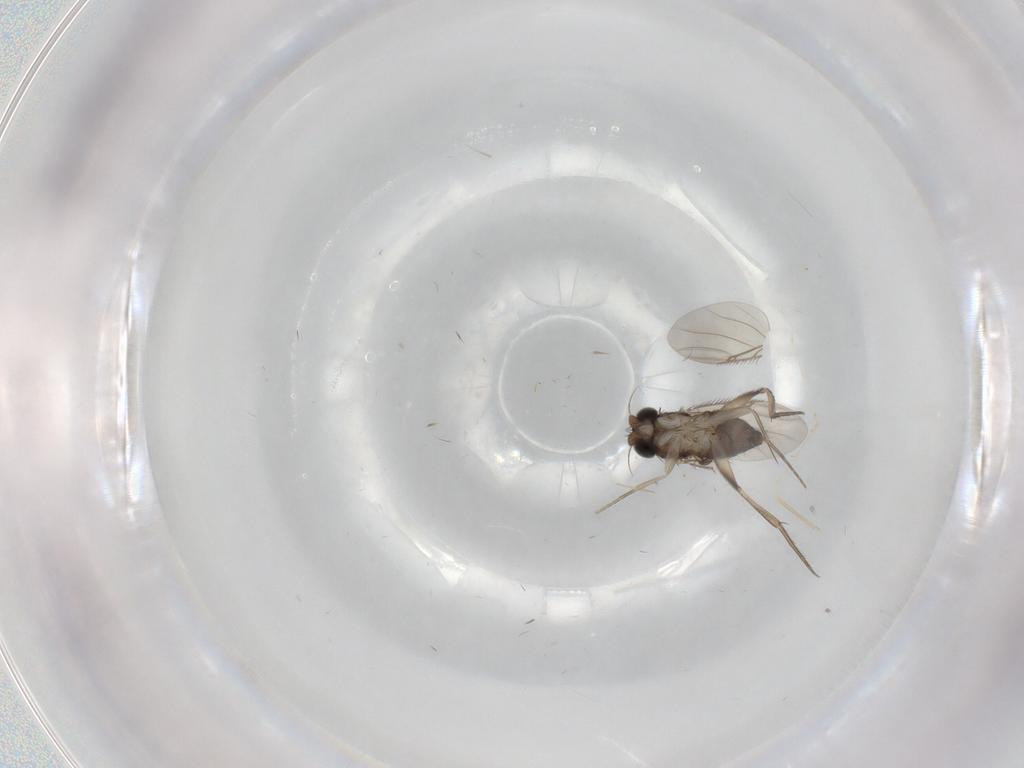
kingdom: Animalia
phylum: Arthropoda
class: Insecta
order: Diptera
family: Phoridae
